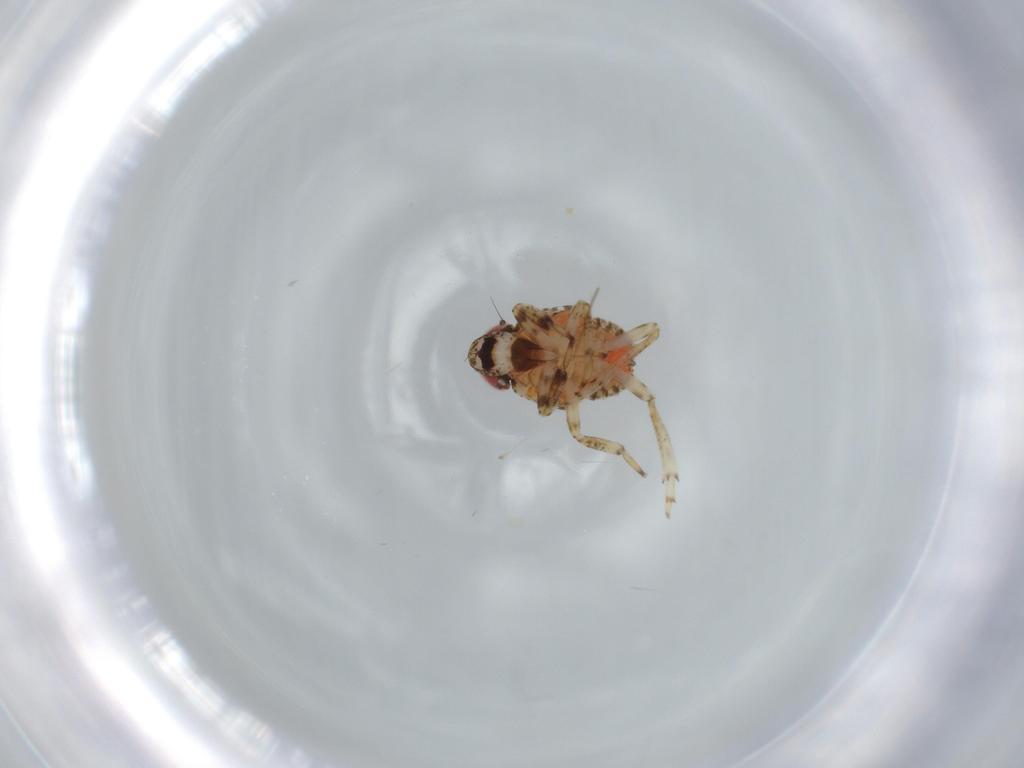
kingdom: Animalia
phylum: Arthropoda
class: Insecta
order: Hemiptera
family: Issidae
